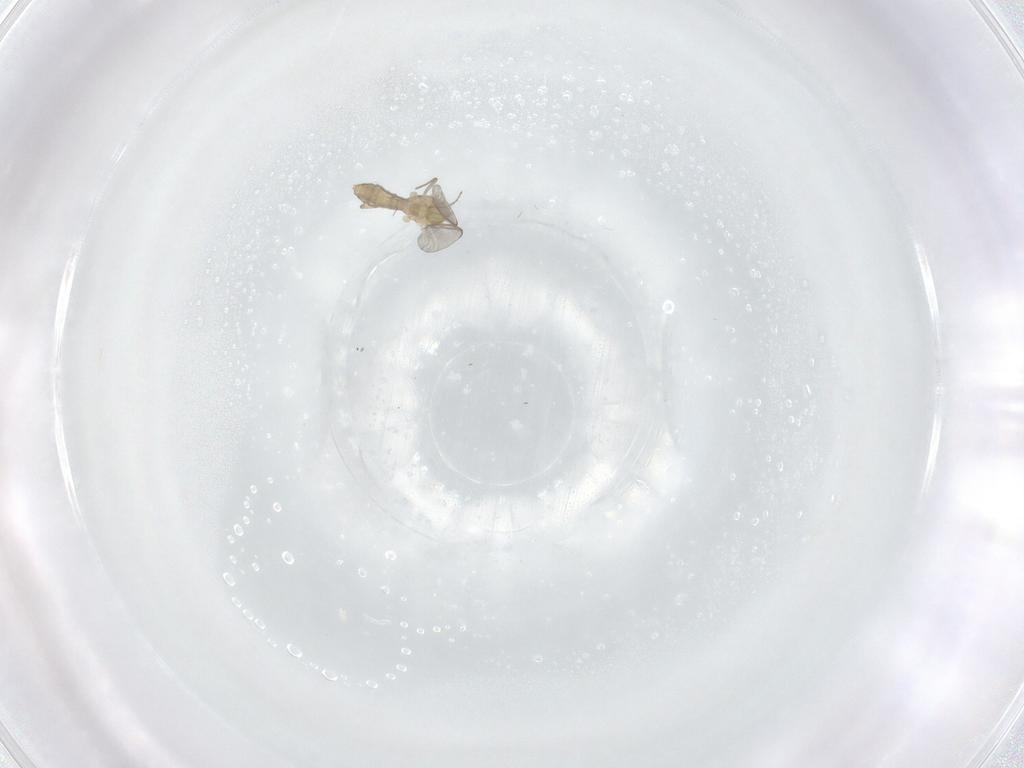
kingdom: Animalia
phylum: Arthropoda
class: Insecta
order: Diptera
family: Chironomidae
